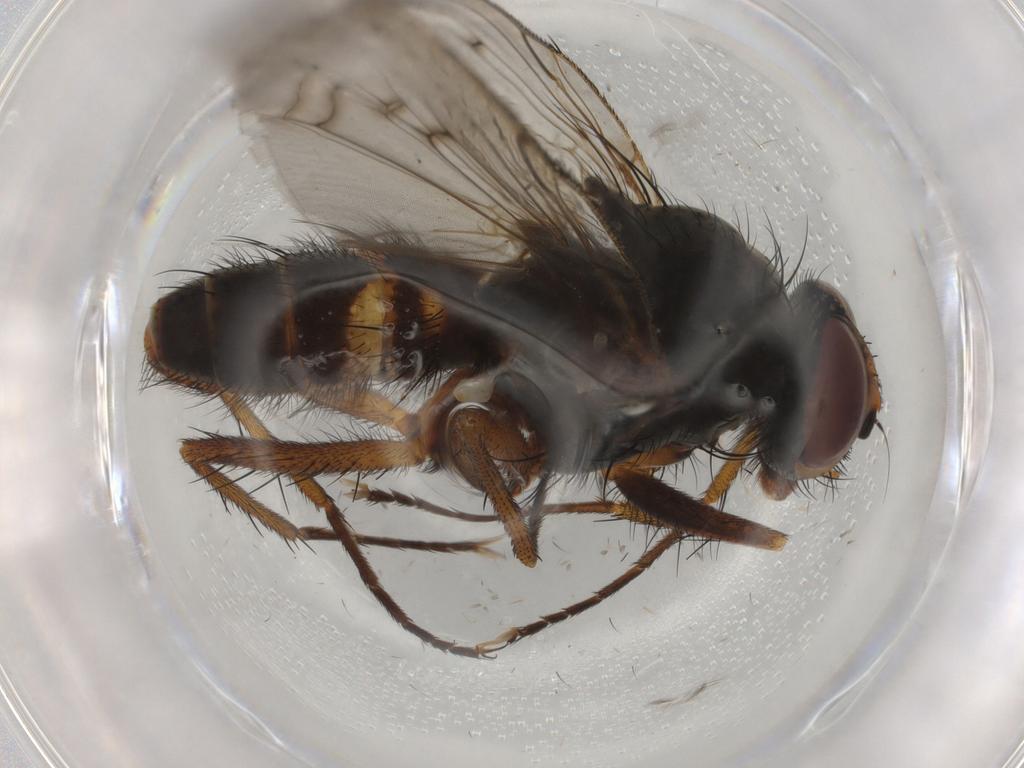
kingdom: Animalia
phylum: Arthropoda
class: Insecta
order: Diptera
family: Anthomyiidae
